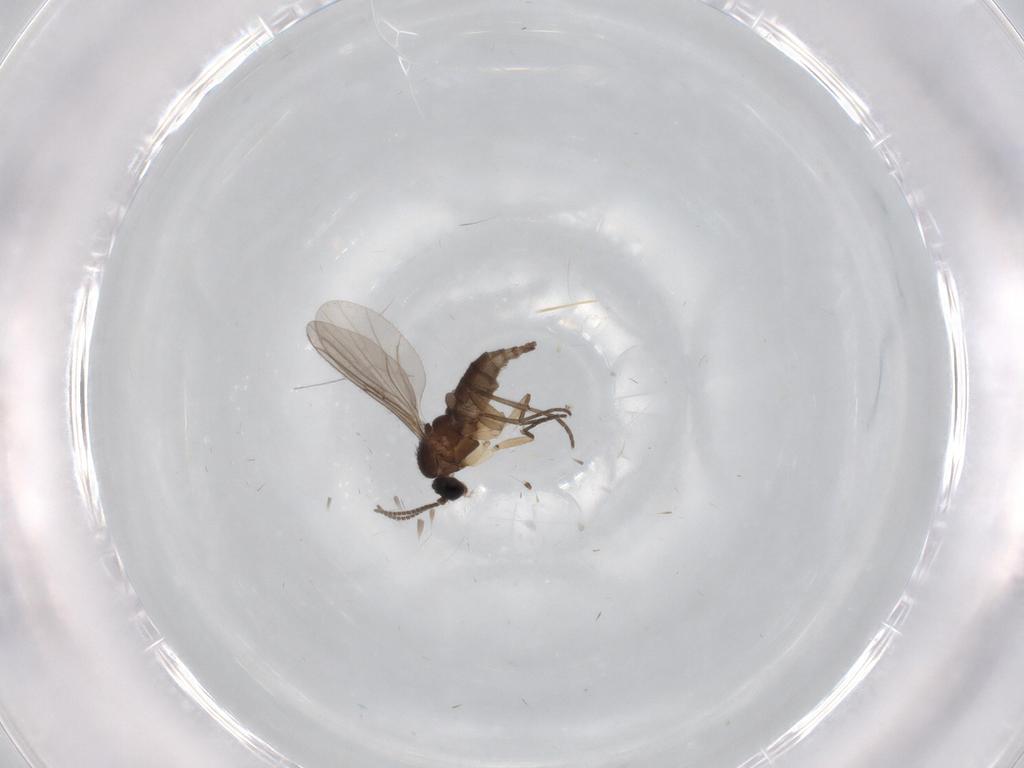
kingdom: Animalia
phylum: Arthropoda
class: Insecta
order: Diptera
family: Sciaridae
